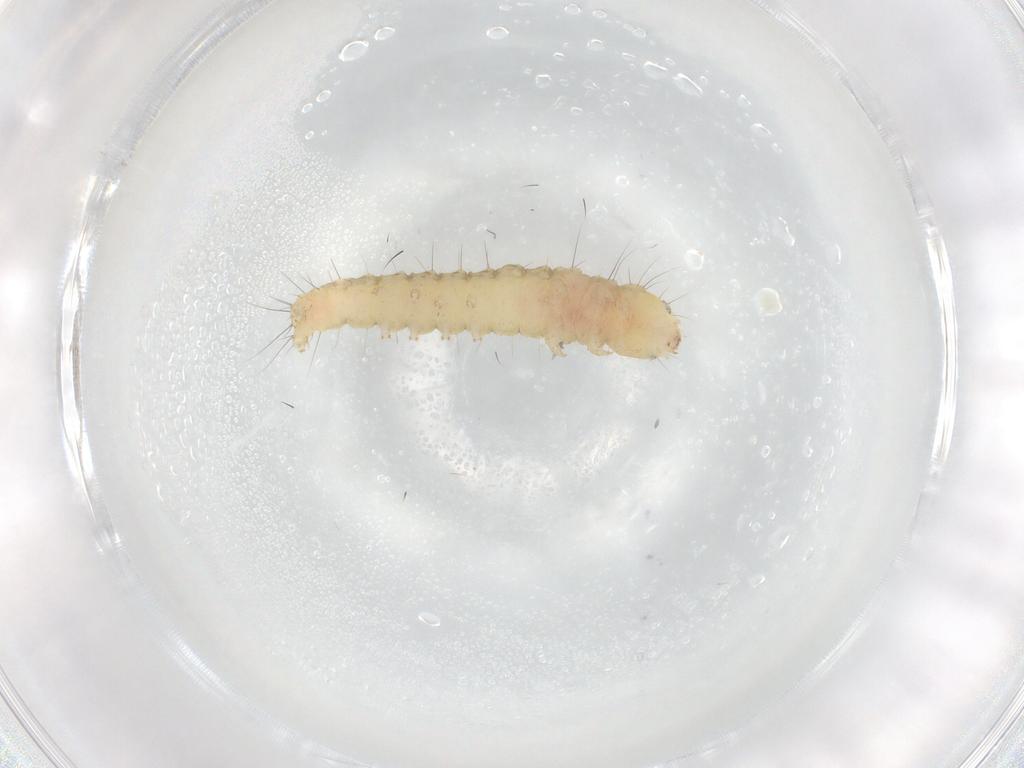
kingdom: Animalia
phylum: Arthropoda
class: Insecta
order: Lepidoptera
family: Gelechiidae
